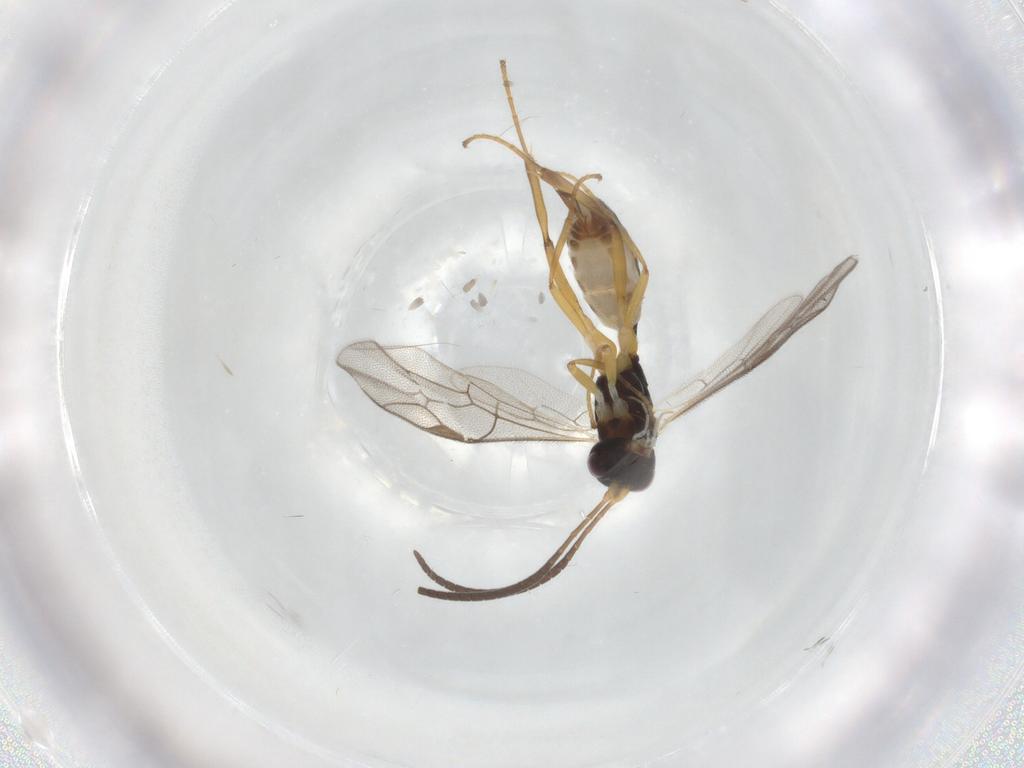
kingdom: Animalia
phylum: Arthropoda
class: Insecta
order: Hymenoptera
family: Ichneumonidae
